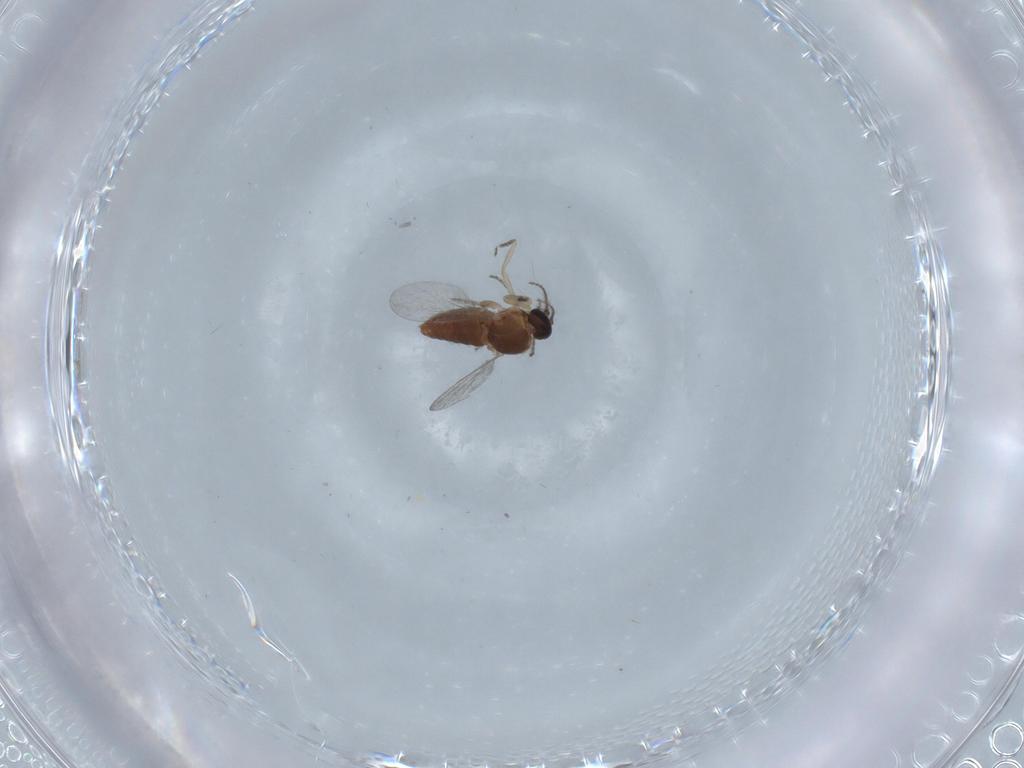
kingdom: Animalia
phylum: Arthropoda
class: Insecta
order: Diptera
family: Ceratopogonidae
